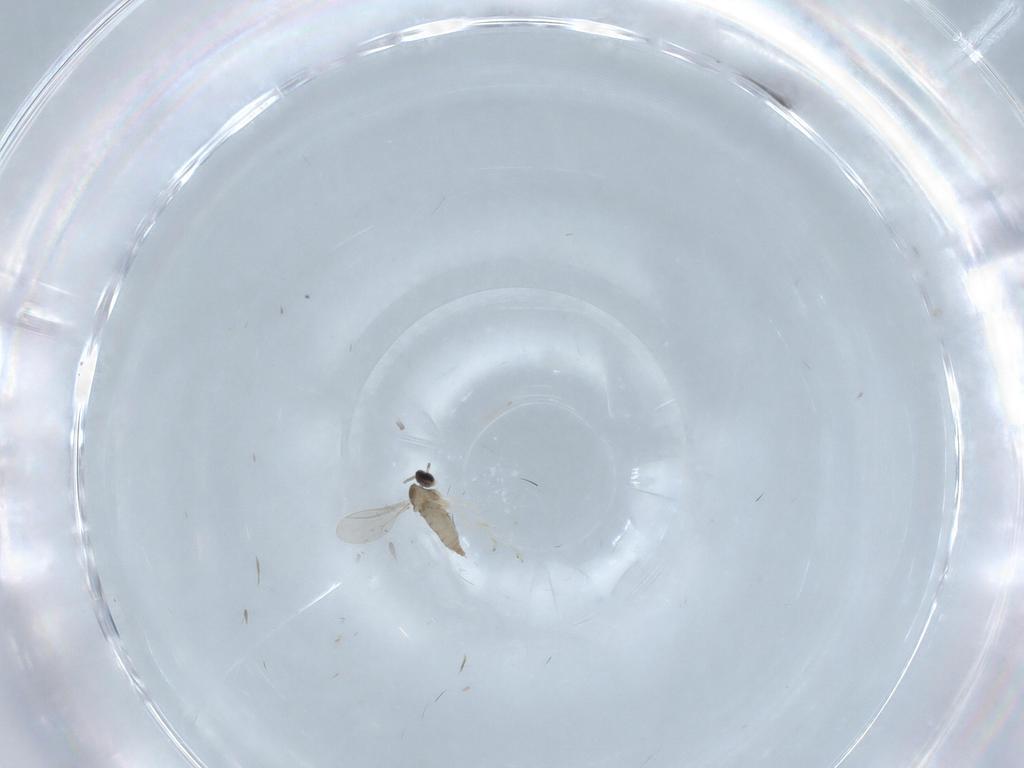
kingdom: Animalia
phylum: Arthropoda
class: Insecta
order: Diptera
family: Cecidomyiidae
